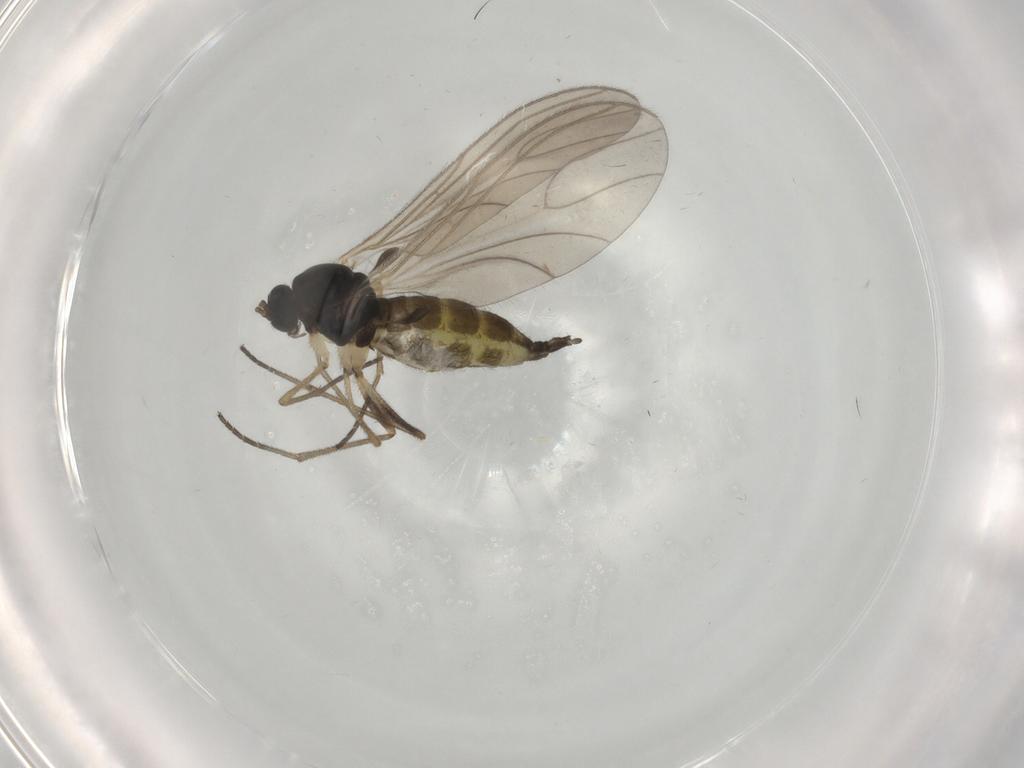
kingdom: Animalia
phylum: Arthropoda
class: Insecta
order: Diptera
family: Sciaridae
